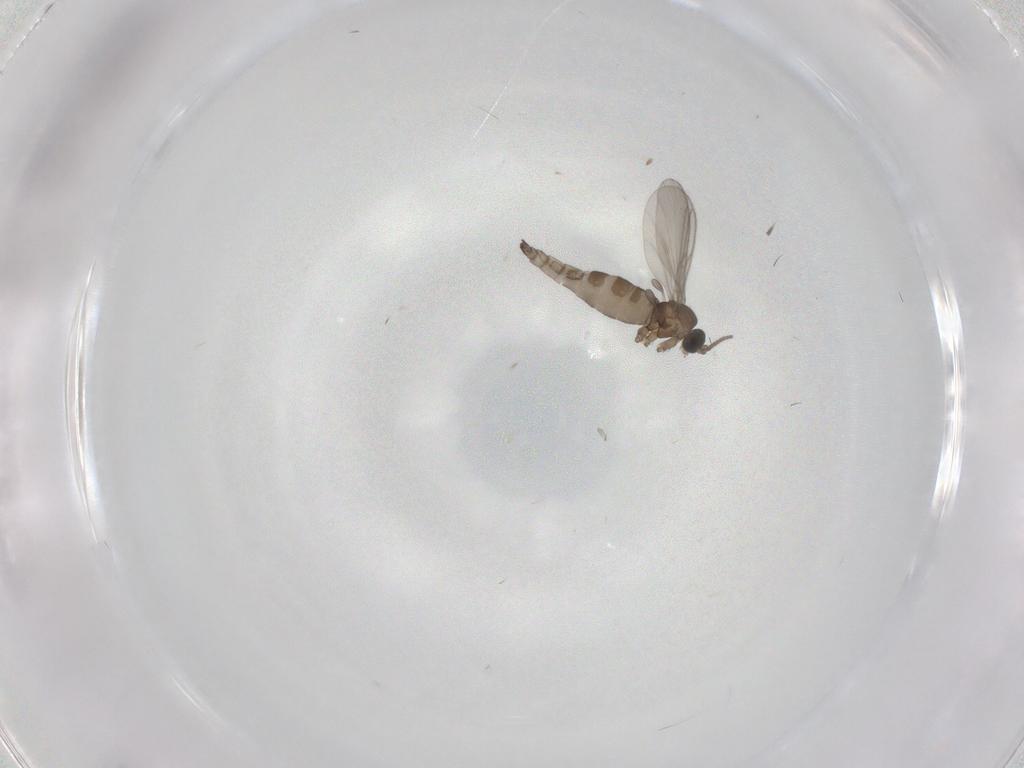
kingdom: Animalia
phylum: Arthropoda
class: Insecta
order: Diptera
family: Sciaridae
